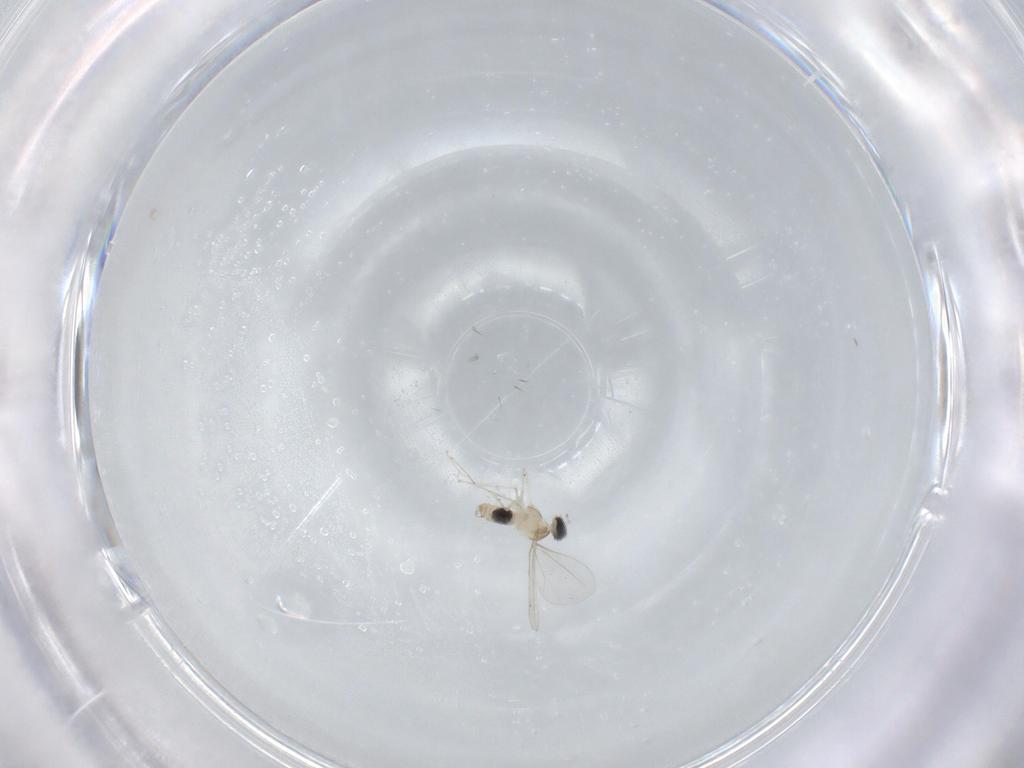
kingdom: Animalia
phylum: Arthropoda
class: Insecta
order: Diptera
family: Cecidomyiidae
